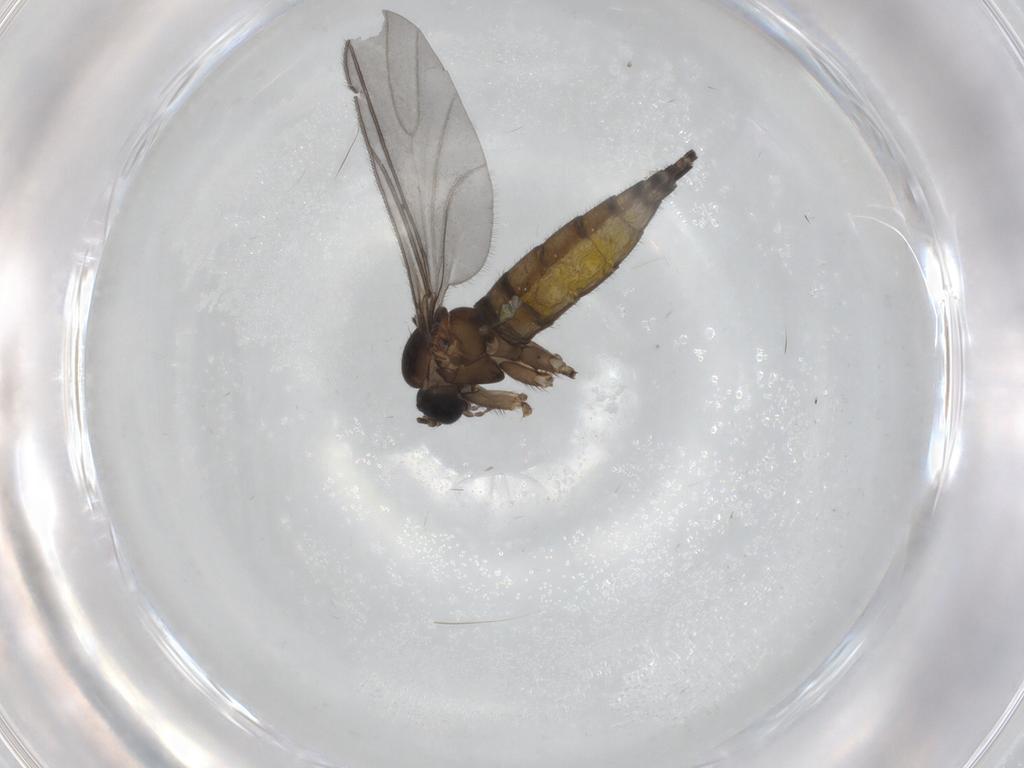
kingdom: Animalia
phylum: Arthropoda
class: Insecta
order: Diptera
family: Sciaridae
